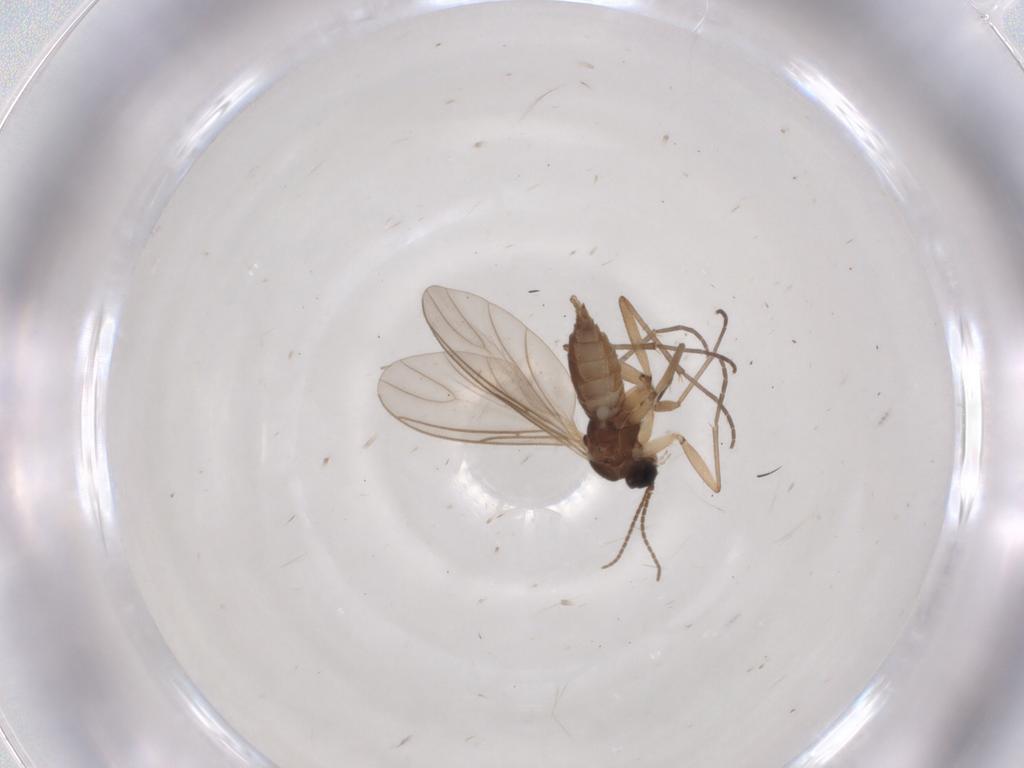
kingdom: Animalia
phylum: Arthropoda
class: Insecta
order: Diptera
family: Sciaridae
